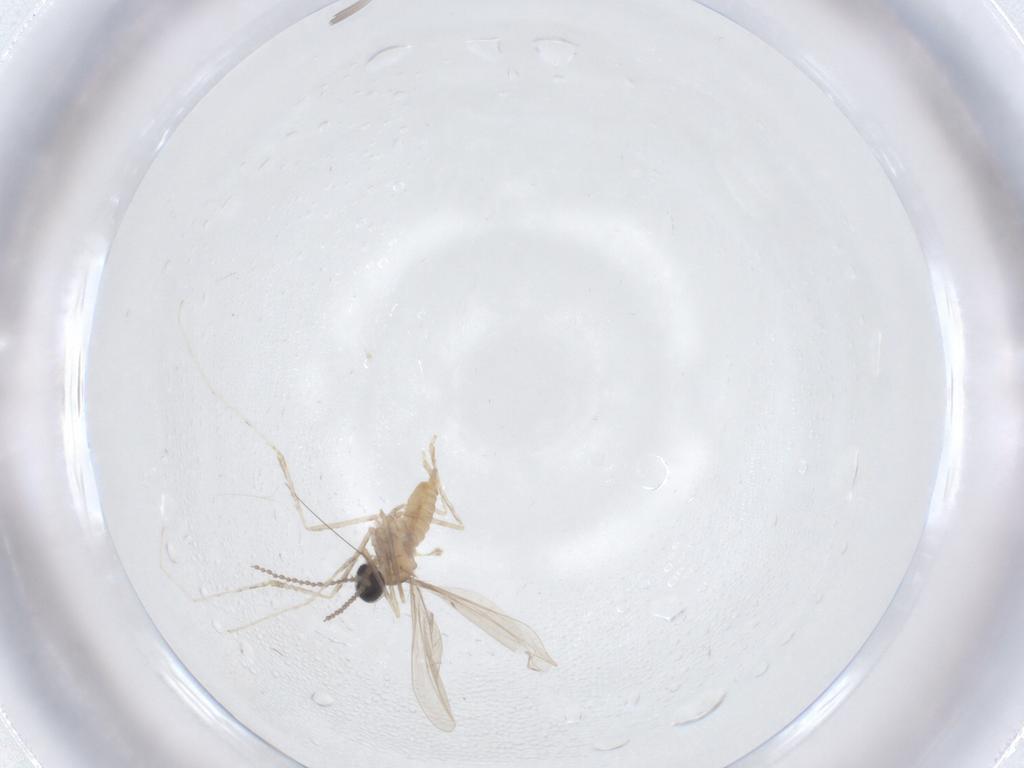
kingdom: Animalia
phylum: Arthropoda
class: Insecta
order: Diptera
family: Cecidomyiidae
